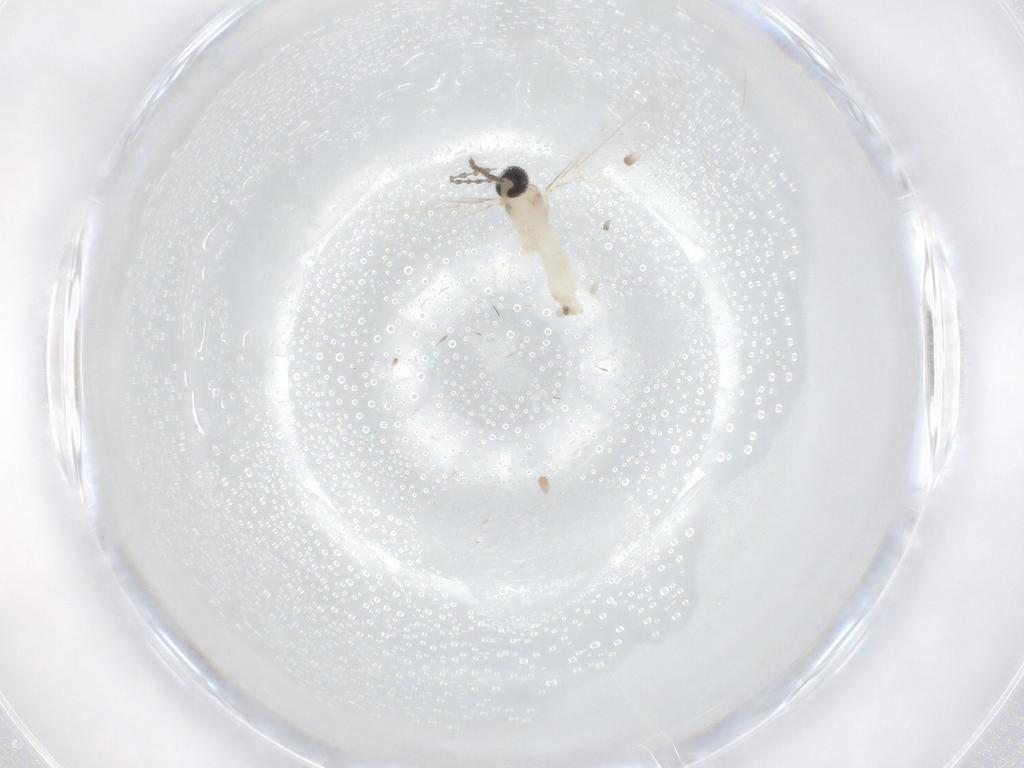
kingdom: Animalia
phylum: Arthropoda
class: Insecta
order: Diptera
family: Cecidomyiidae
